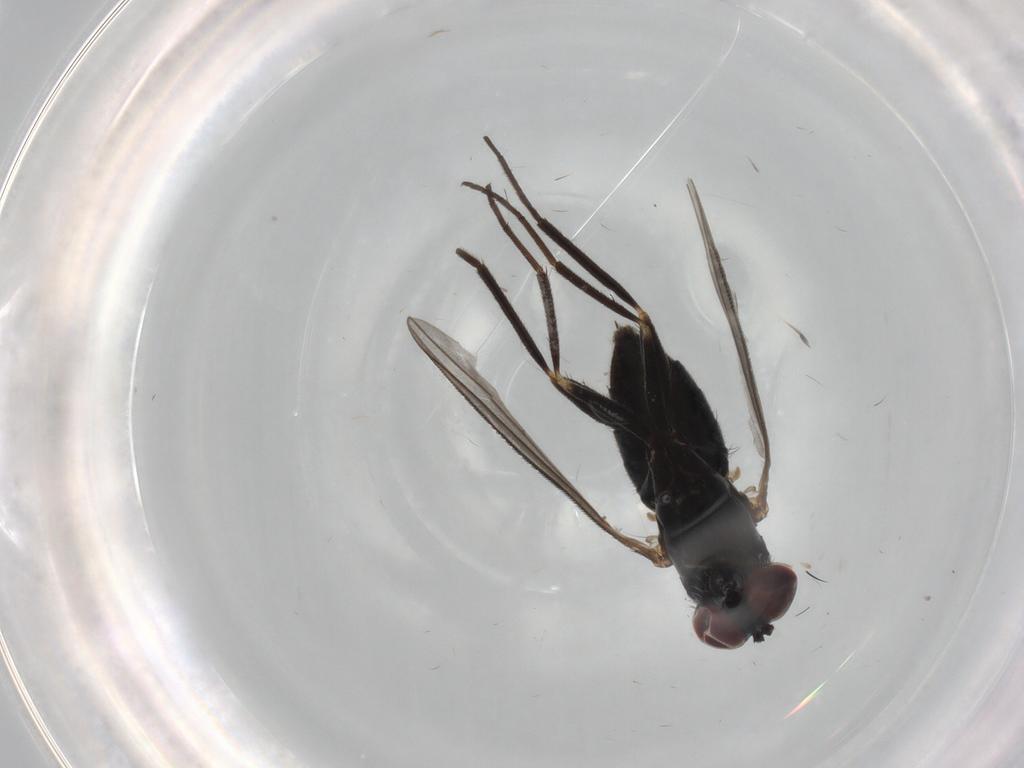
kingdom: Animalia
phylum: Arthropoda
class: Insecta
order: Diptera
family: Dolichopodidae
